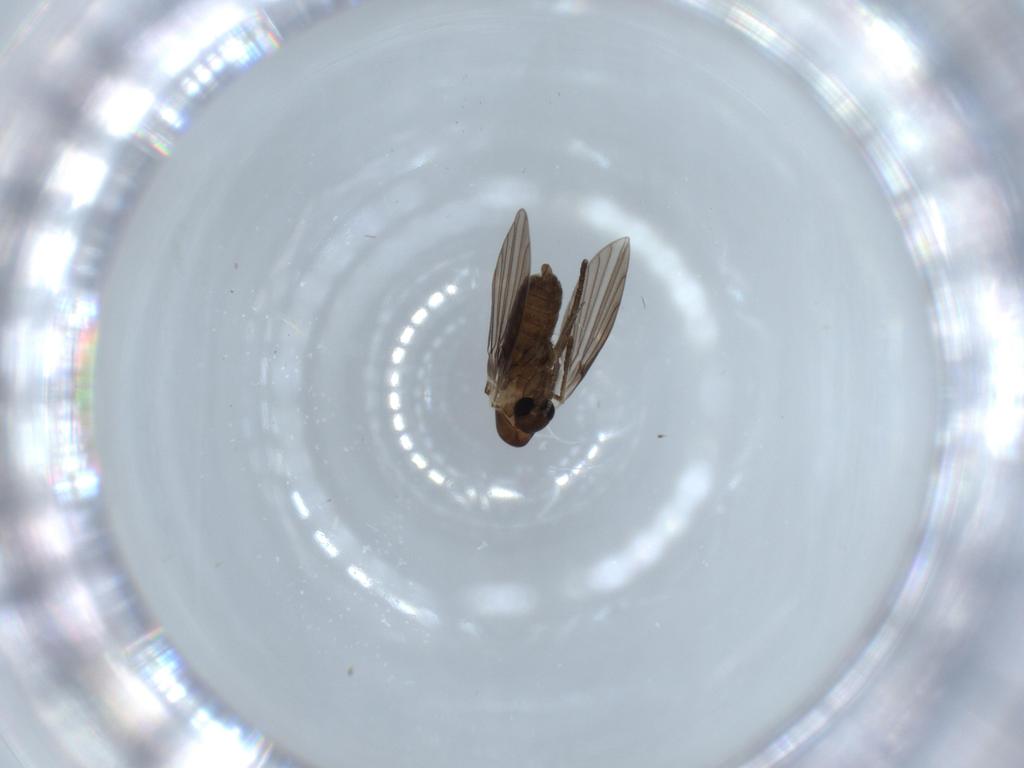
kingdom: Animalia
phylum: Arthropoda
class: Insecta
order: Diptera
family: Psychodidae
